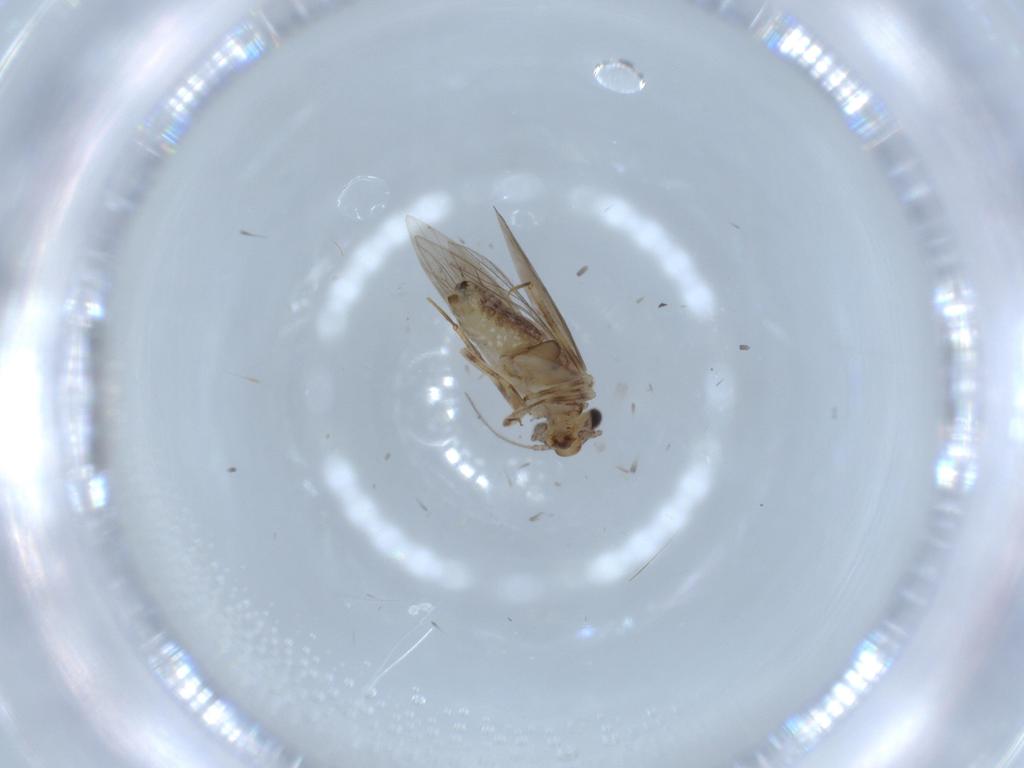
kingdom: Animalia
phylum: Arthropoda
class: Insecta
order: Psocodea
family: Lepidopsocidae
